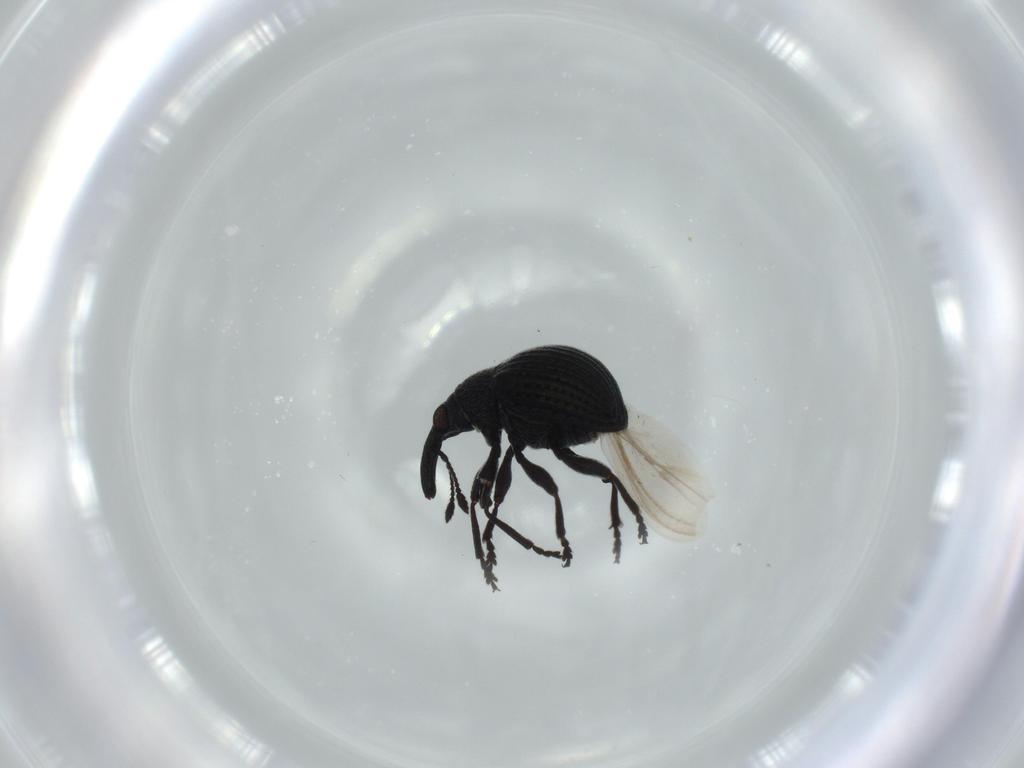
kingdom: Animalia
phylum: Arthropoda
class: Insecta
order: Coleoptera
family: Brentidae
